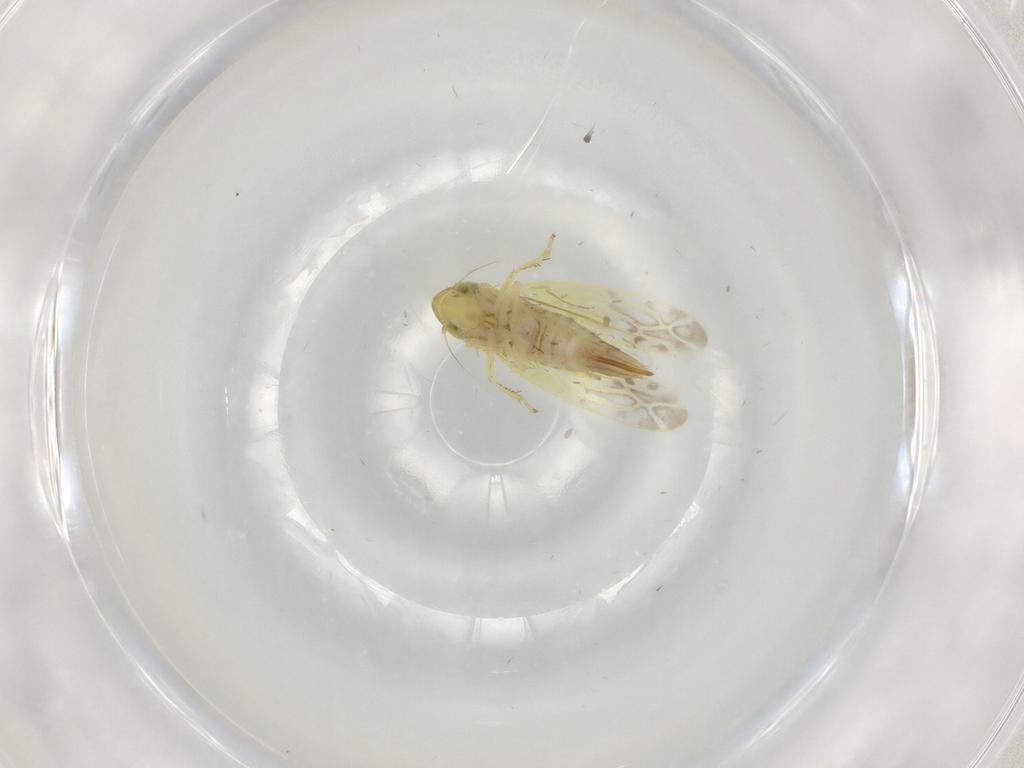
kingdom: Animalia
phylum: Arthropoda
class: Insecta
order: Hemiptera
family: Cicadellidae
